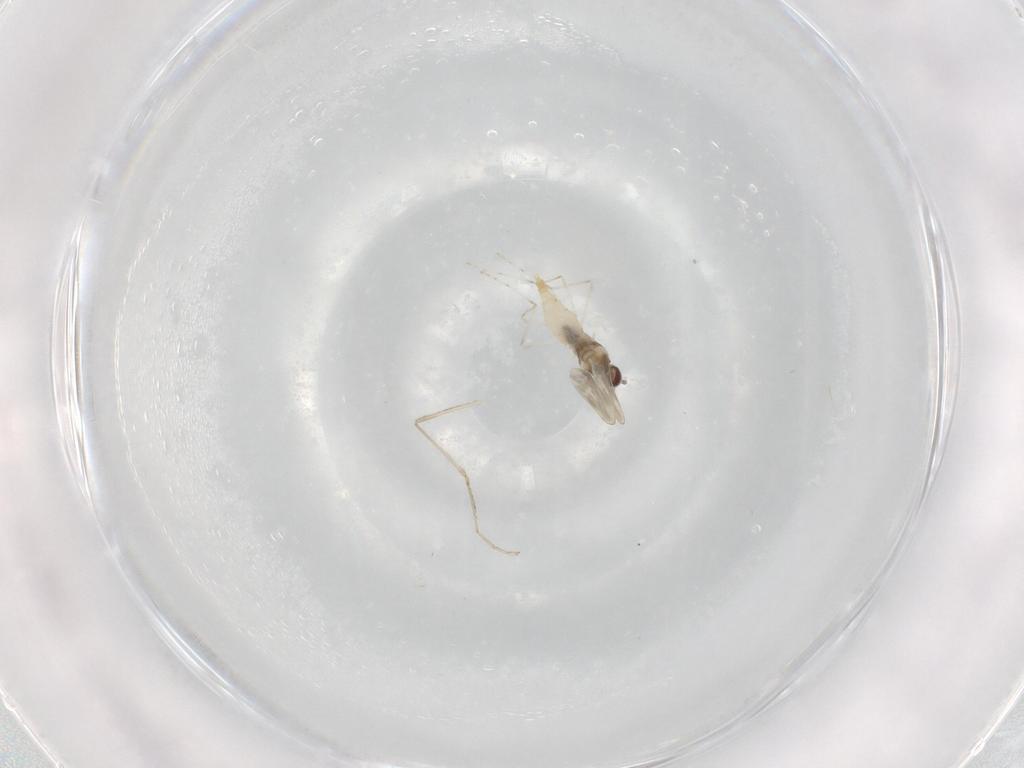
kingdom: Animalia
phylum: Arthropoda
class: Insecta
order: Diptera
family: Cecidomyiidae
